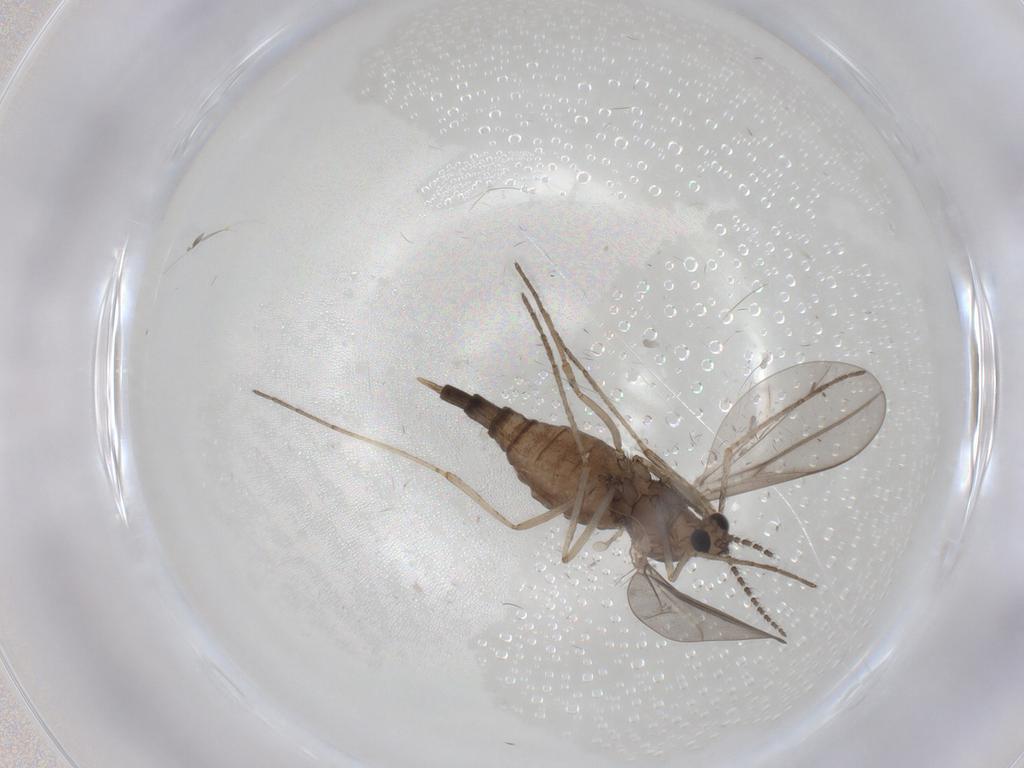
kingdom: Animalia
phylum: Arthropoda
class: Insecta
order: Diptera
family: Cecidomyiidae
